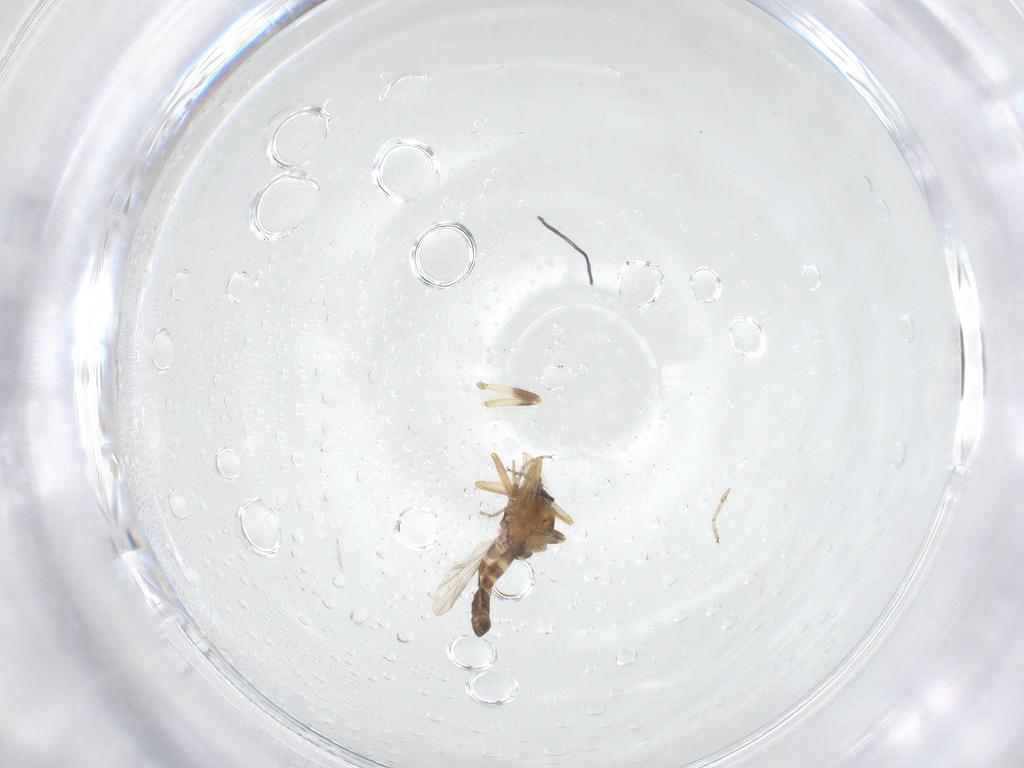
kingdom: Animalia
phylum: Arthropoda
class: Insecta
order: Diptera
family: Ceratopogonidae
